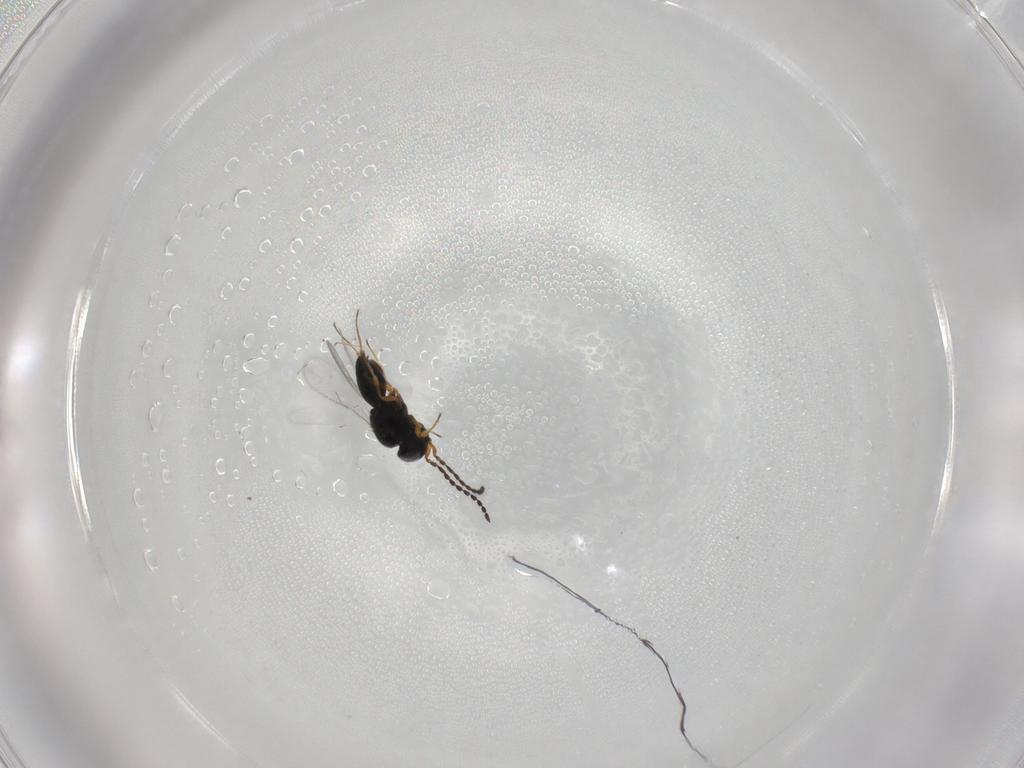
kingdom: Animalia
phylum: Arthropoda
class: Insecta
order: Hymenoptera
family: Scelionidae
